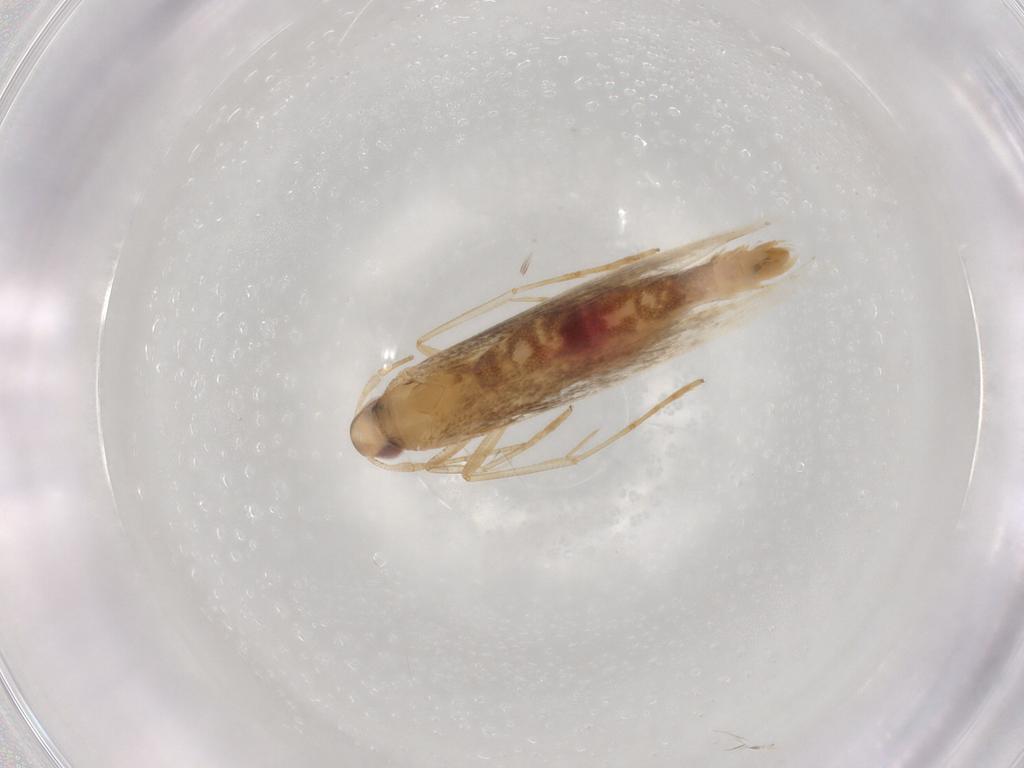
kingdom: Animalia
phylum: Arthropoda
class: Insecta
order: Lepidoptera
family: Cosmopterigidae
